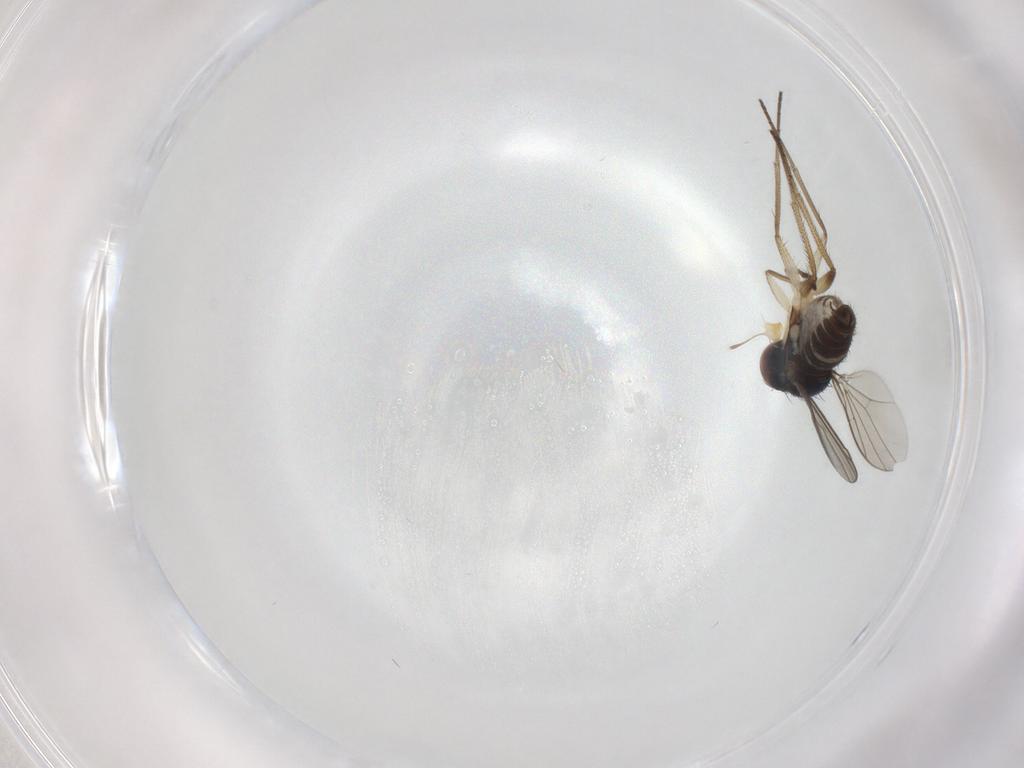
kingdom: Animalia
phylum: Arthropoda
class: Insecta
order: Diptera
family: Dolichopodidae
